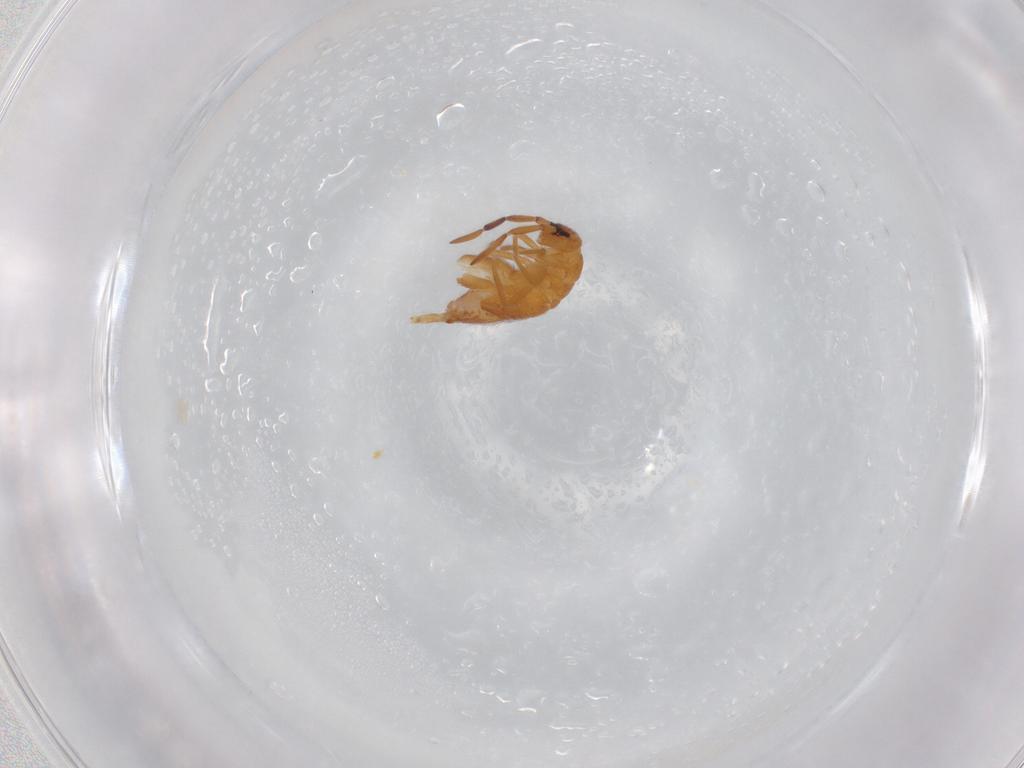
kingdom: Animalia
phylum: Arthropoda
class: Collembola
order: Entomobryomorpha
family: Entomobryidae
